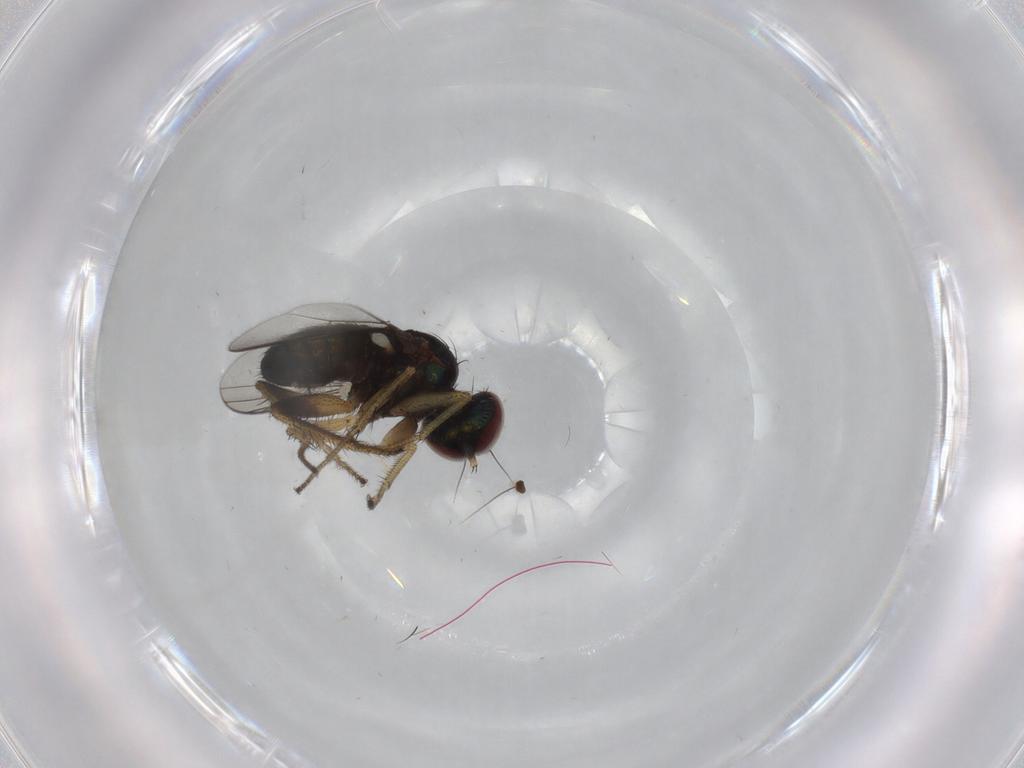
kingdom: Animalia
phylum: Arthropoda
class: Insecta
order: Diptera
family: Dolichopodidae
